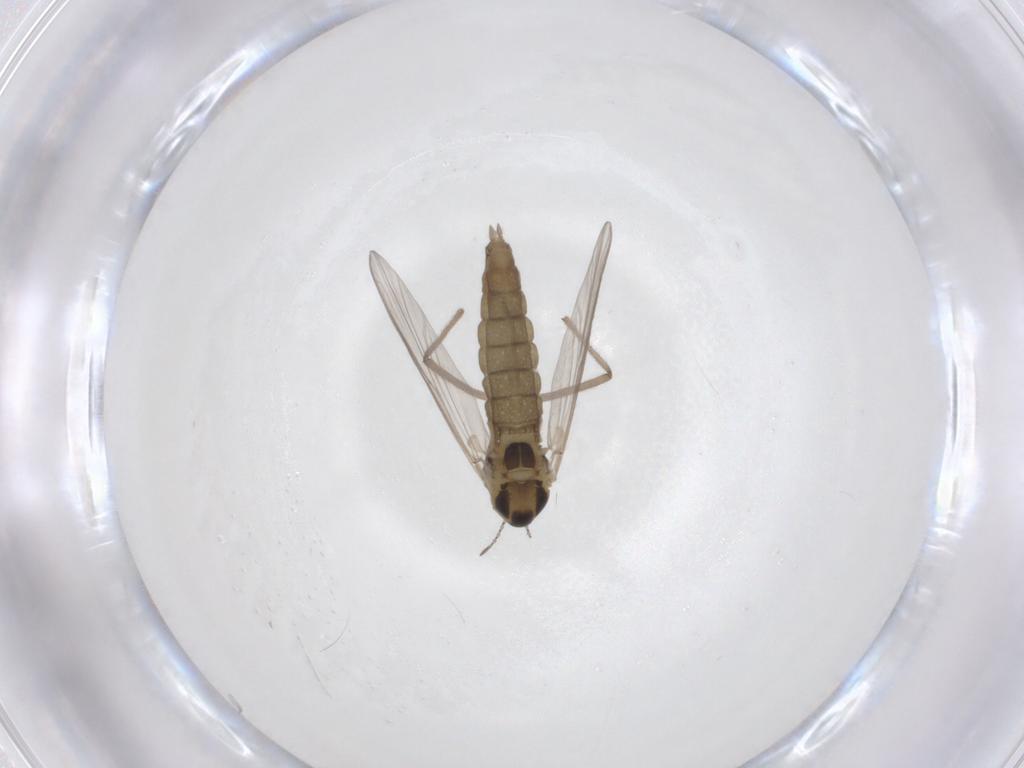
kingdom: Animalia
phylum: Arthropoda
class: Insecta
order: Diptera
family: Chironomidae
